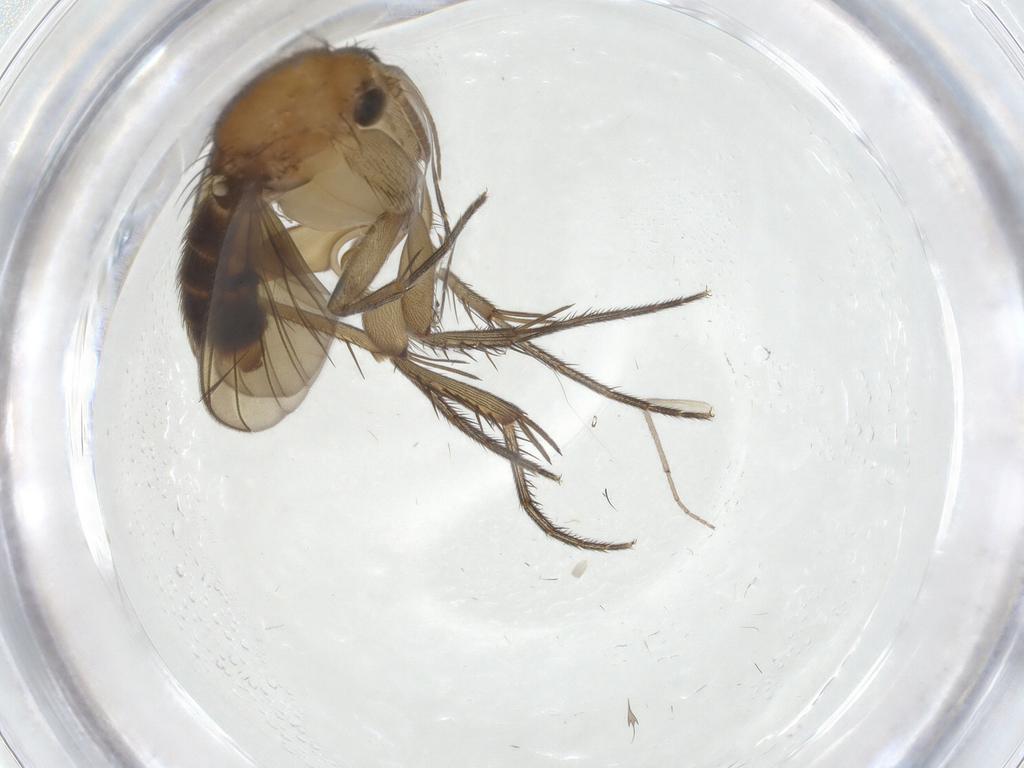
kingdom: Animalia
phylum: Arthropoda
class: Insecta
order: Diptera
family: Mycetophilidae
